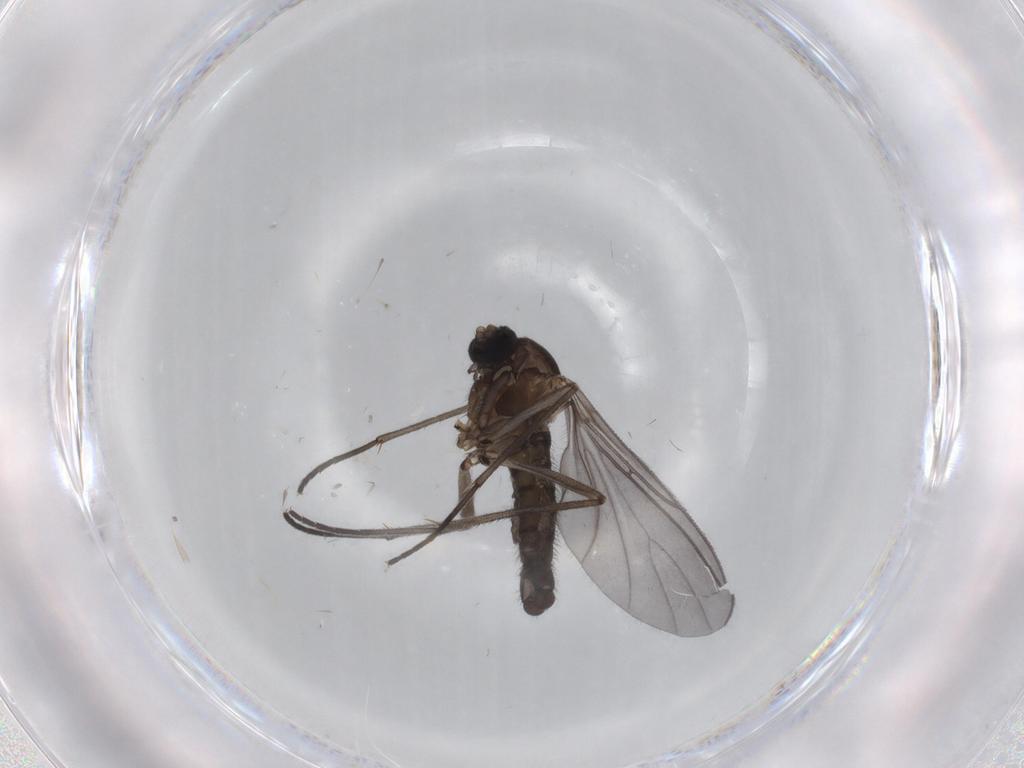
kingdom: Animalia
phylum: Arthropoda
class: Insecta
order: Diptera
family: Sciaridae
